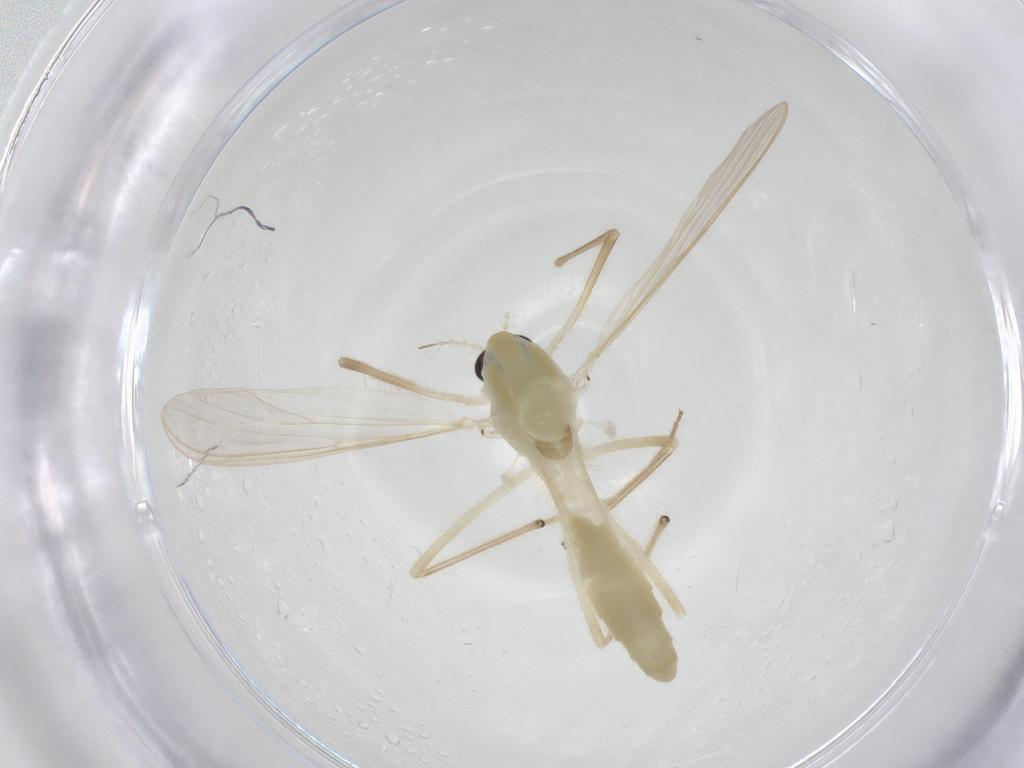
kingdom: Animalia
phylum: Arthropoda
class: Insecta
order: Diptera
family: Chironomidae
